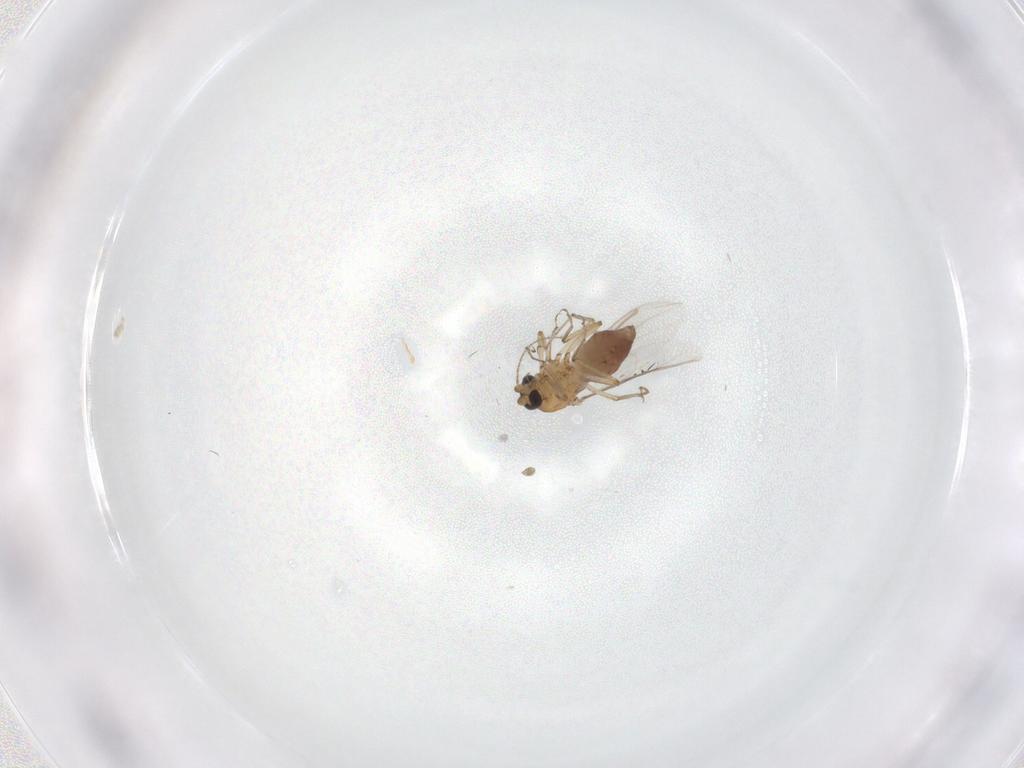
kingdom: Animalia
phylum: Arthropoda
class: Insecta
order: Diptera
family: Ceratopogonidae
